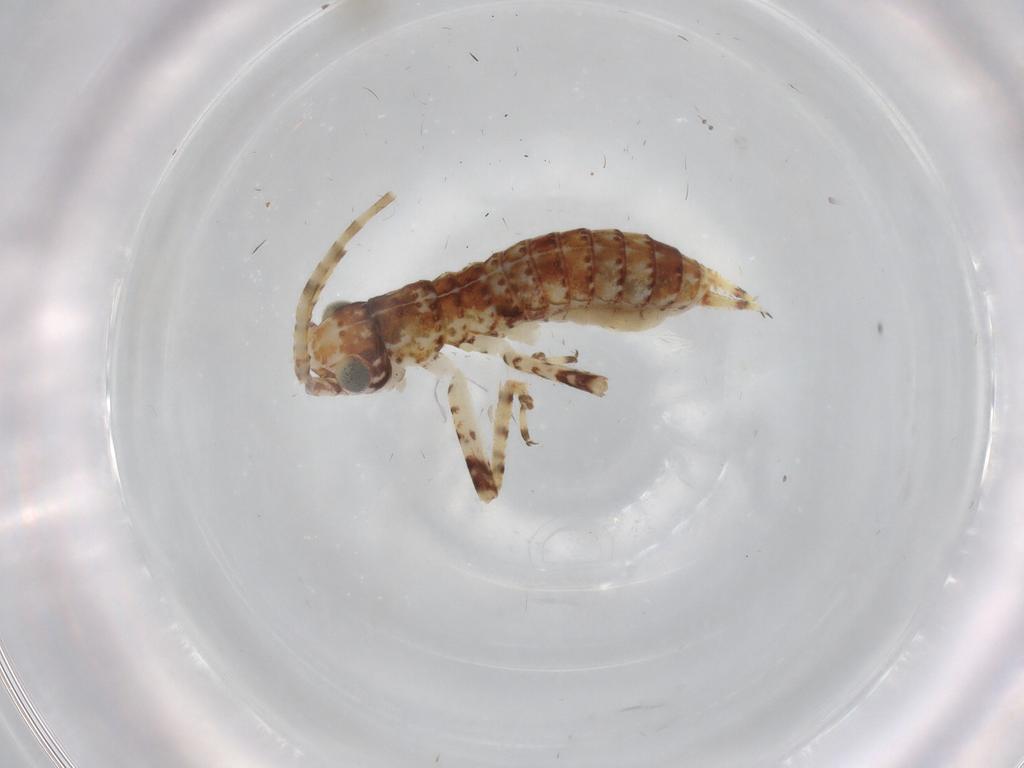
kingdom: Animalia
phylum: Arthropoda
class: Insecta
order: Orthoptera
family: Gryllidae
